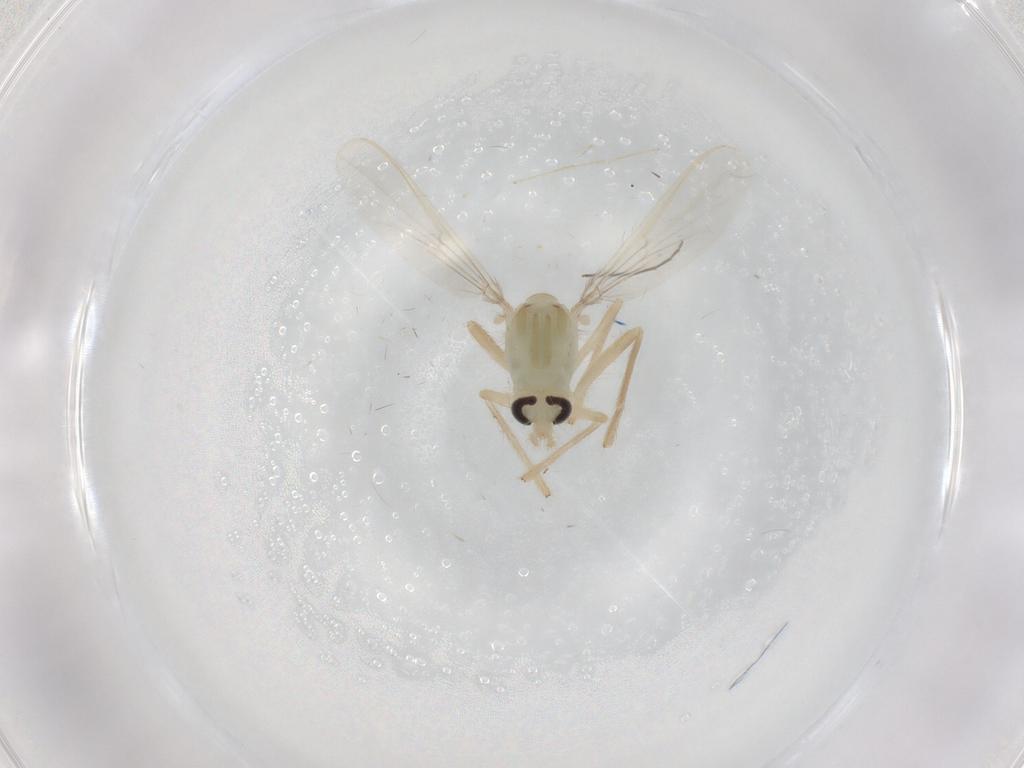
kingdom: Animalia
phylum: Arthropoda
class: Insecta
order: Diptera
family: Chironomidae
